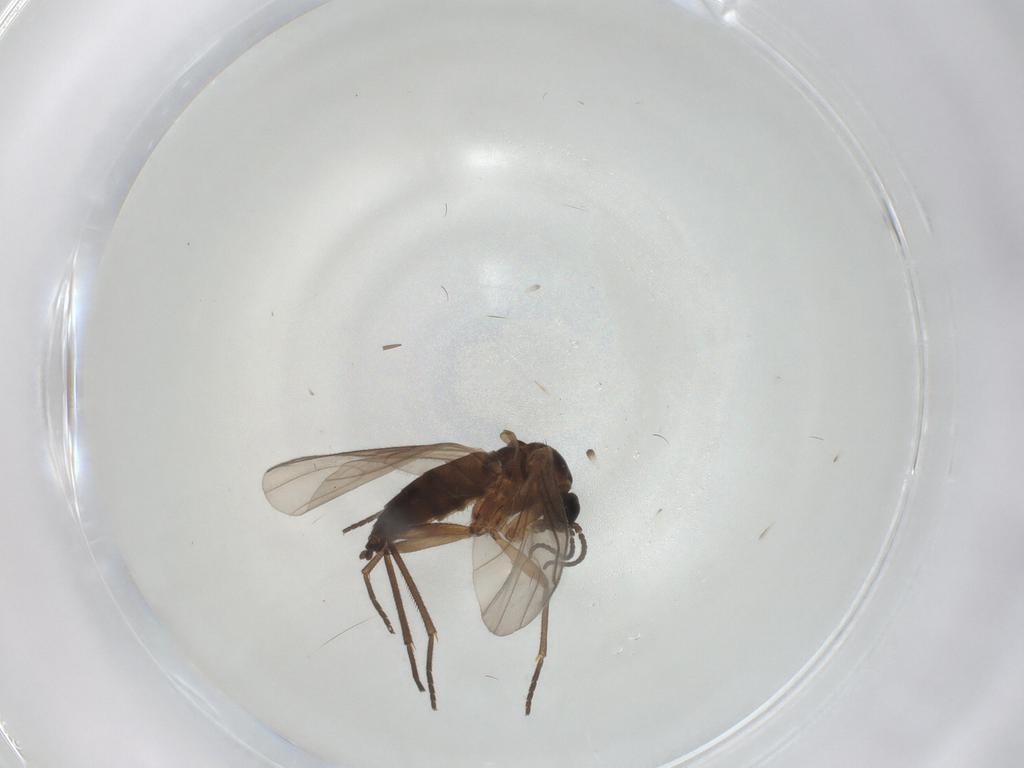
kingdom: Animalia
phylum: Arthropoda
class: Insecta
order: Diptera
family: Sciaridae
